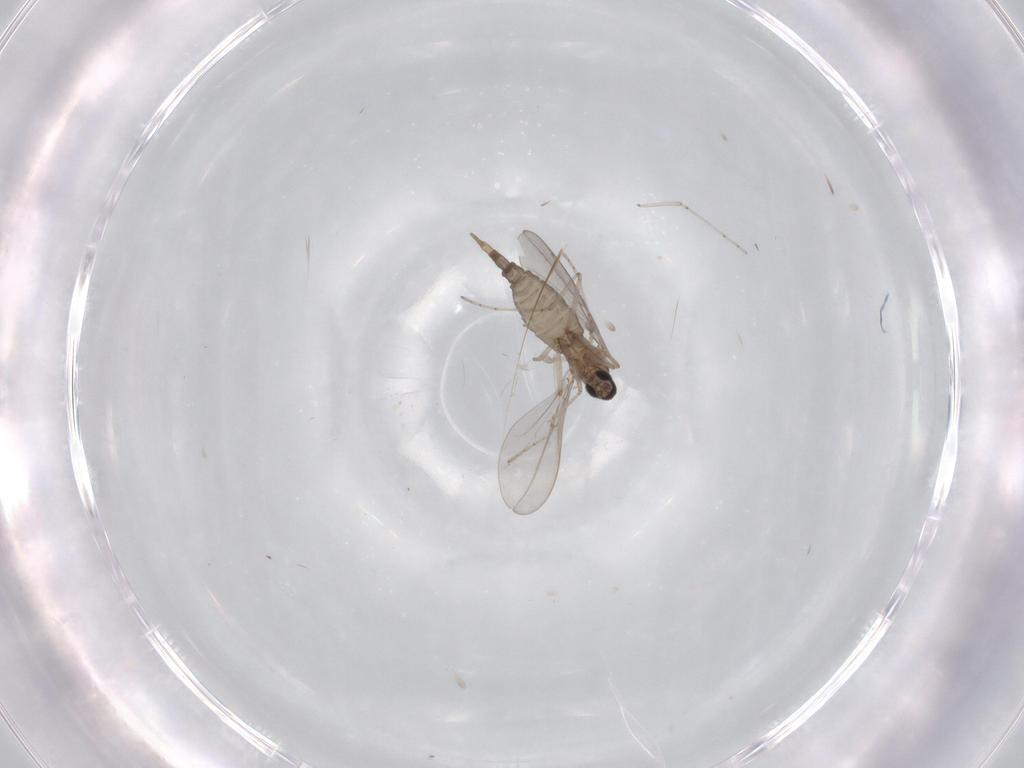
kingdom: Animalia
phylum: Arthropoda
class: Insecta
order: Diptera
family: Cecidomyiidae
